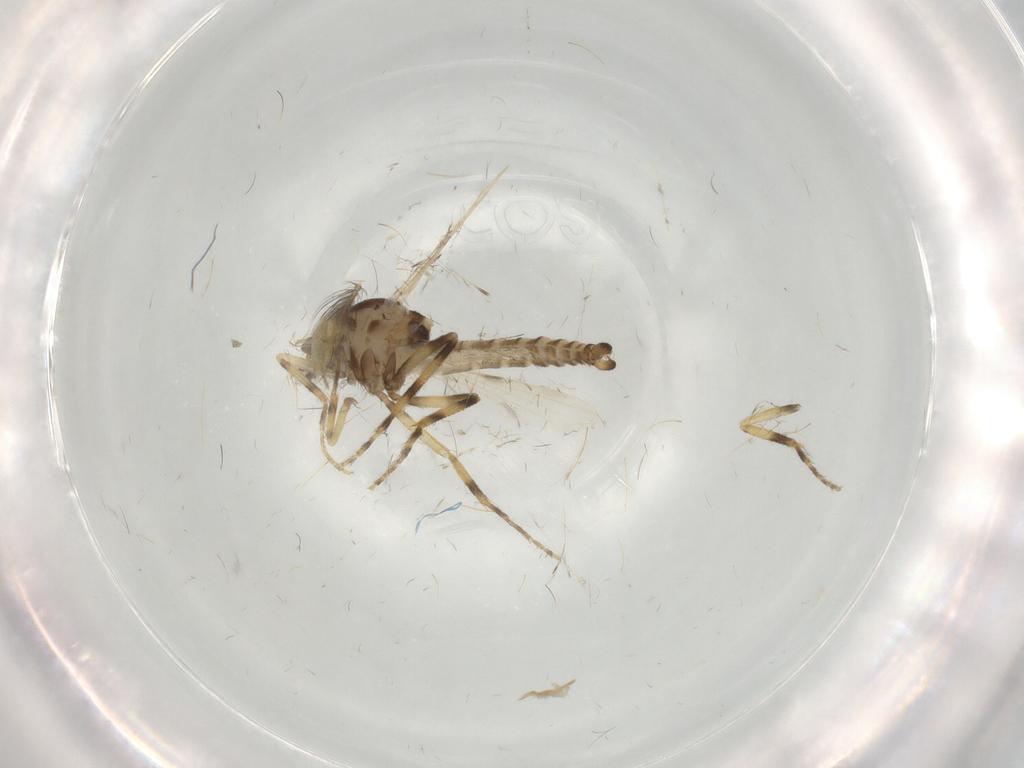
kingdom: Animalia
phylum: Arthropoda
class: Insecta
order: Diptera
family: Ceratopogonidae
